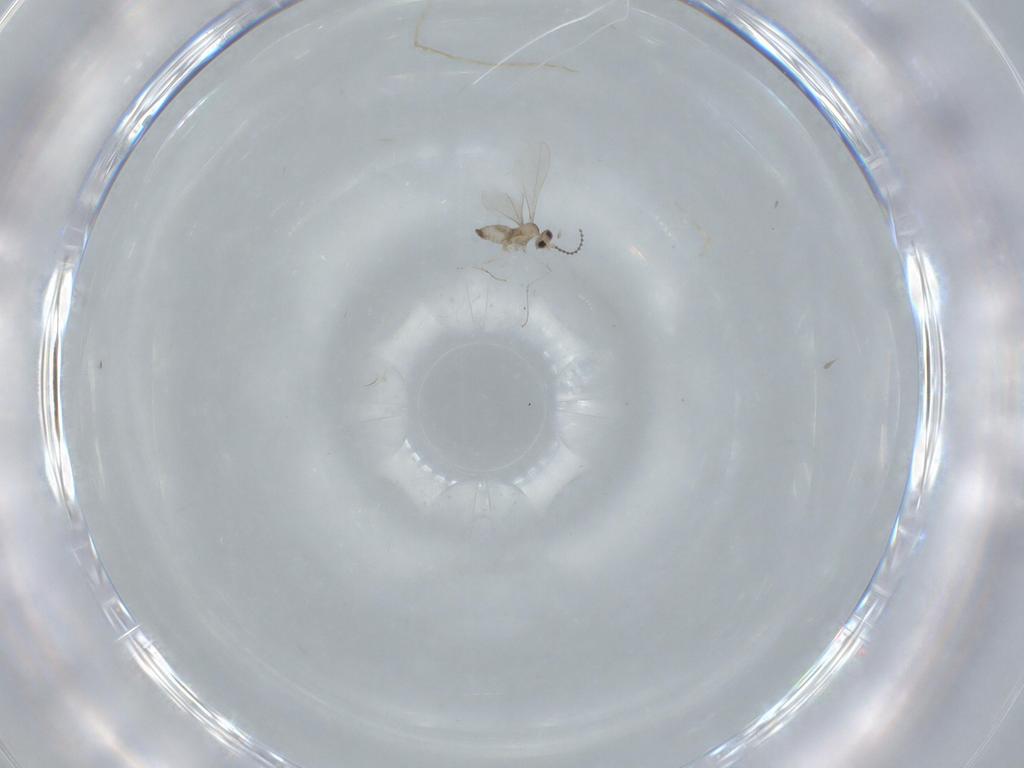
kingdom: Animalia
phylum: Arthropoda
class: Insecta
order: Diptera
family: Cecidomyiidae
